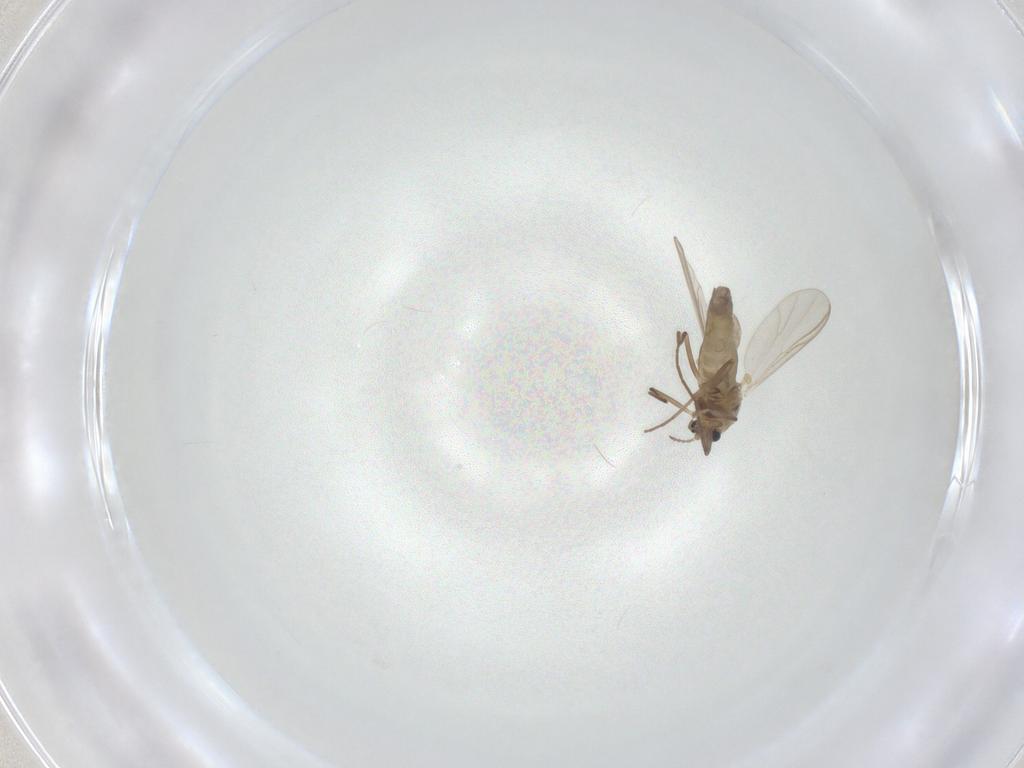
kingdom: Animalia
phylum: Arthropoda
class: Insecta
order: Diptera
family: Chironomidae
